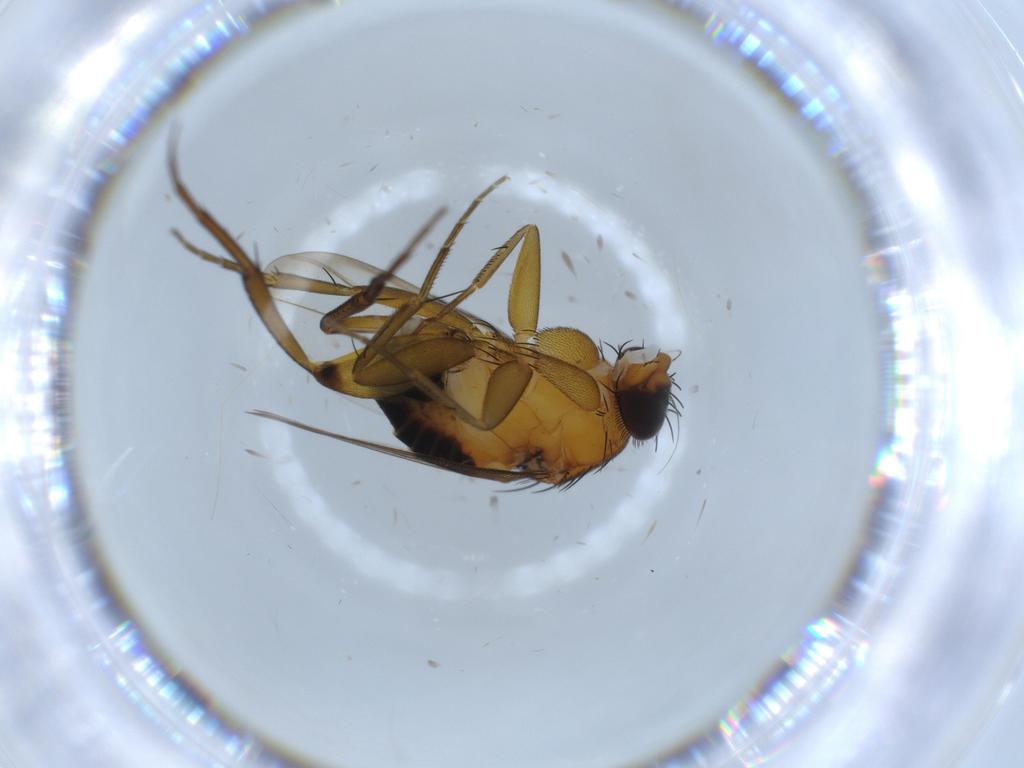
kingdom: Animalia
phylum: Arthropoda
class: Insecta
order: Diptera
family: Phoridae
